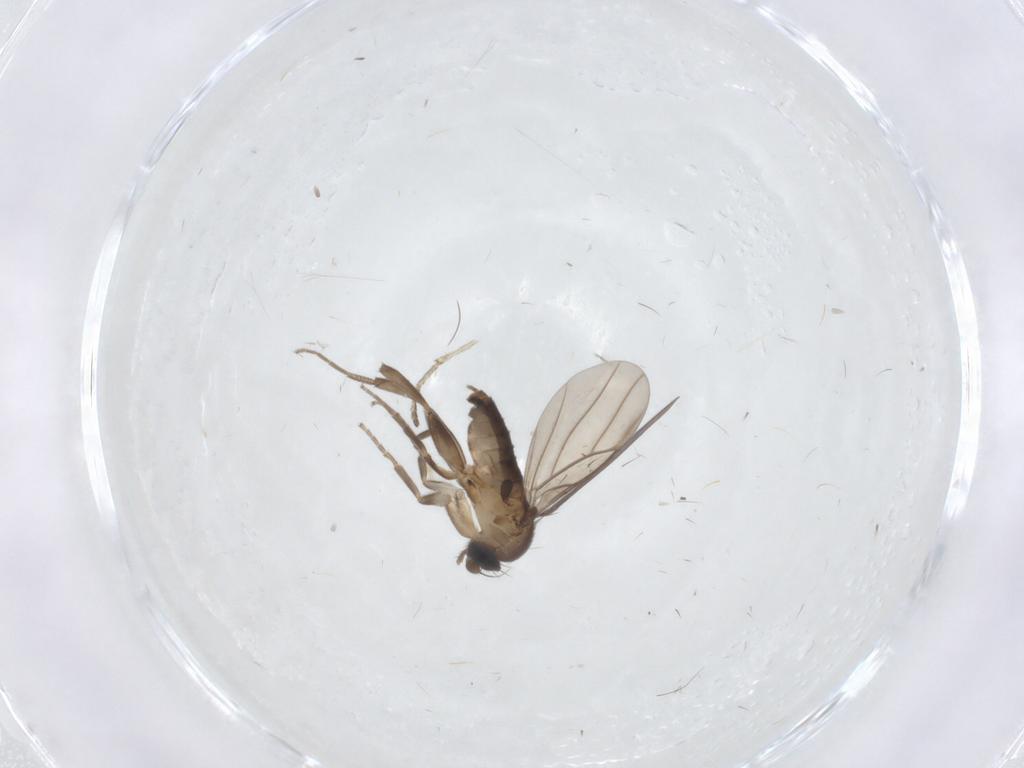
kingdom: Animalia
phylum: Arthropoda
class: Insecta
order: Diptera
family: Limoniidae
